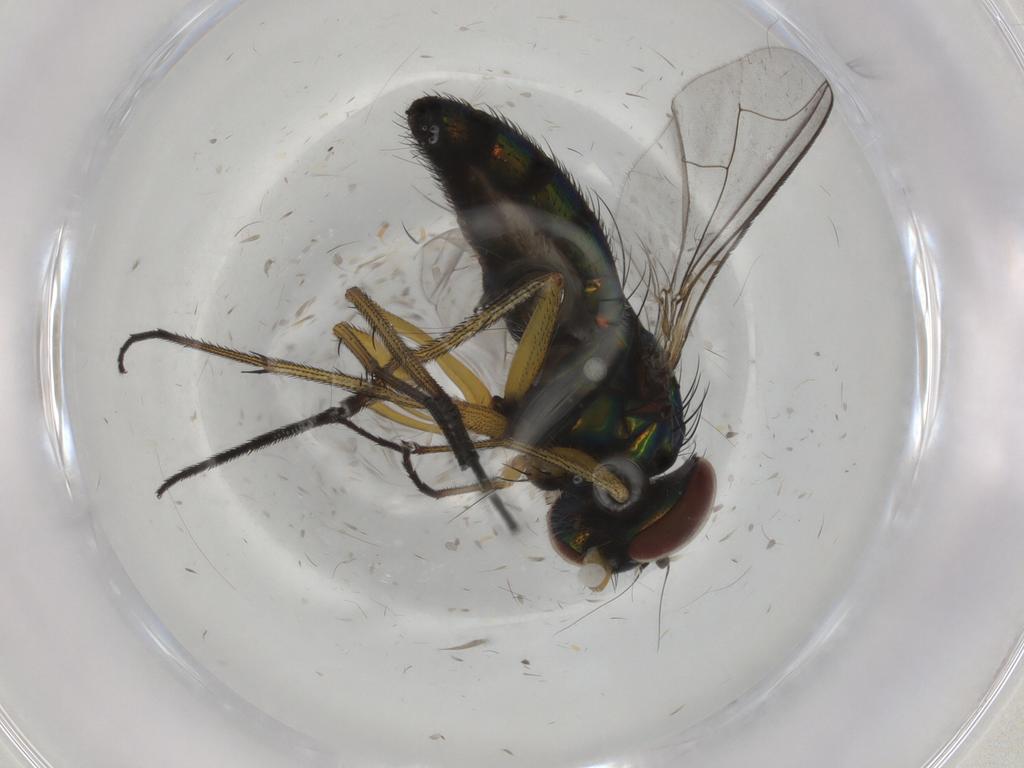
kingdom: Animalia
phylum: Arthropoda
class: Insecta
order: Diptera
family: Dolichopodidae
